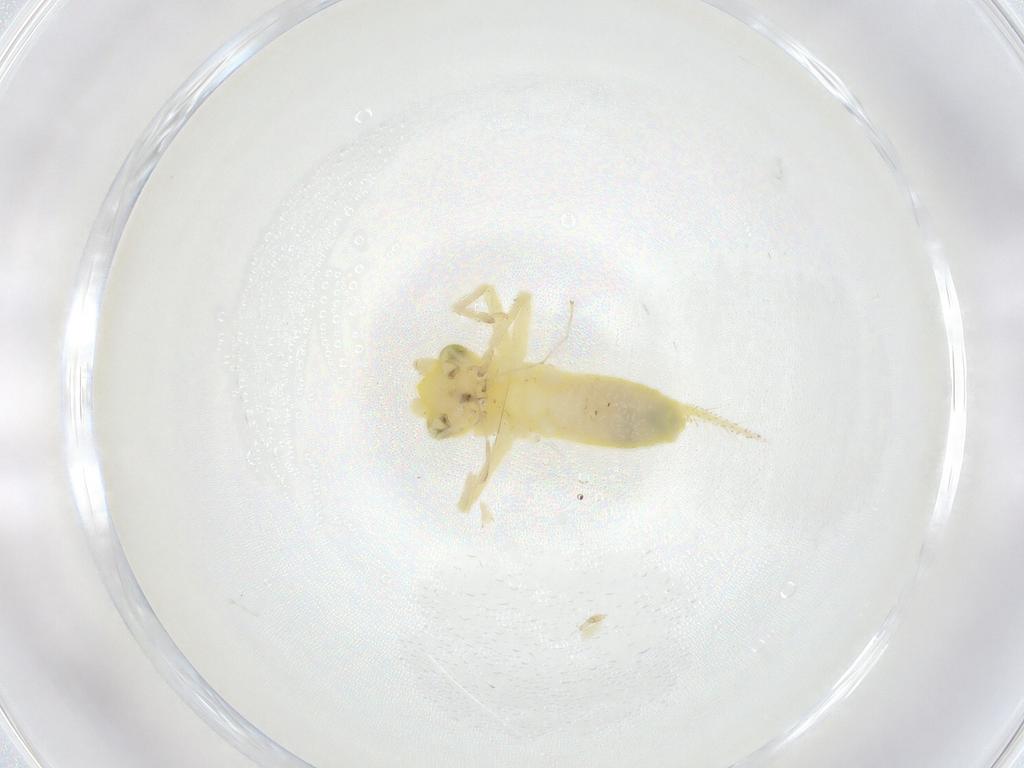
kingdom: Animalia
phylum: Arthropoda
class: Insecta
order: Orthoptera
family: Trigonidiidae
